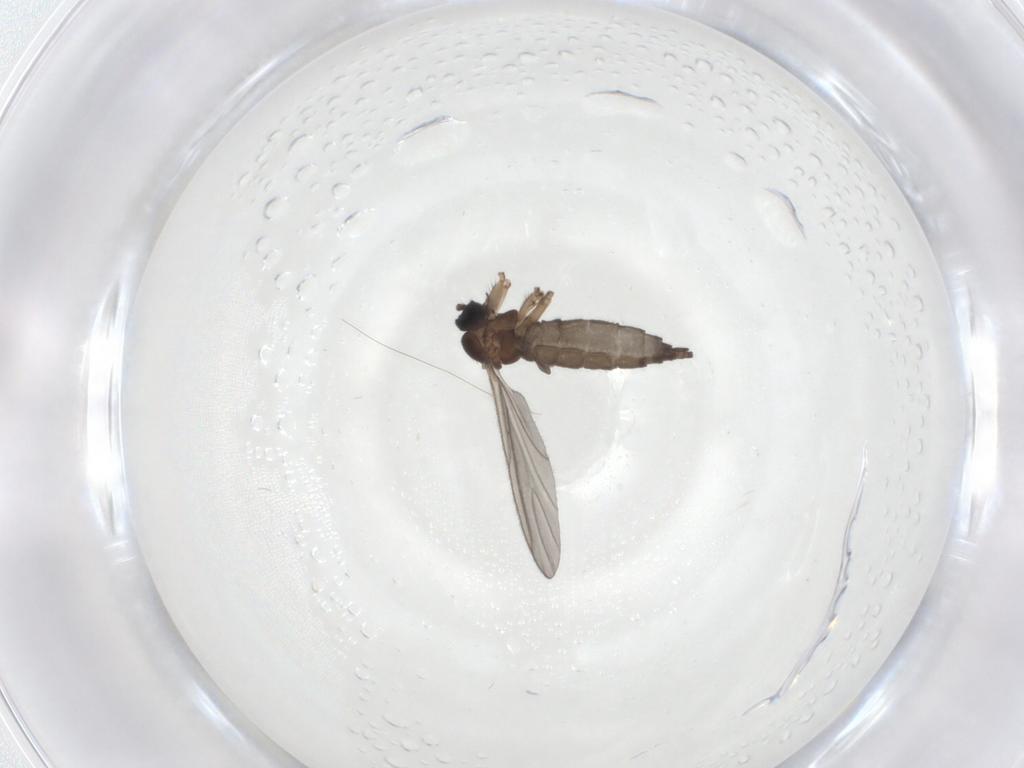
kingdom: Animalia
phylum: Arthropoda
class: Insecta
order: Diptera
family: Sciaridae
